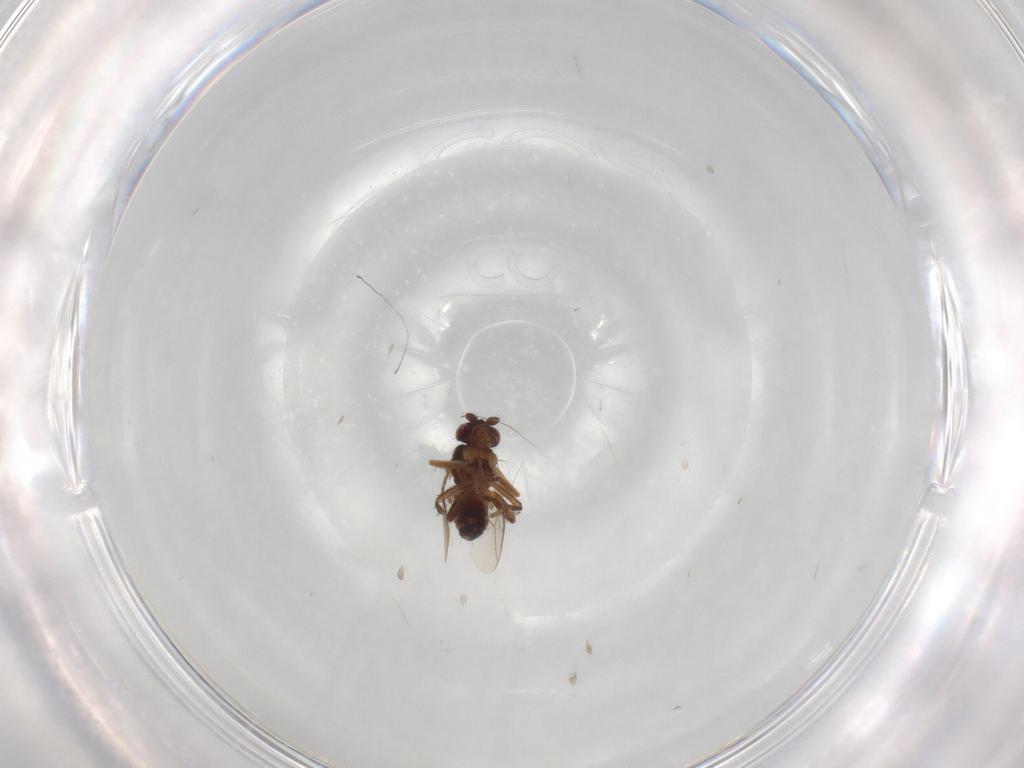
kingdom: Animalia
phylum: Arthropoda
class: Insecta
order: Diptera
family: Sphaeroceridae
